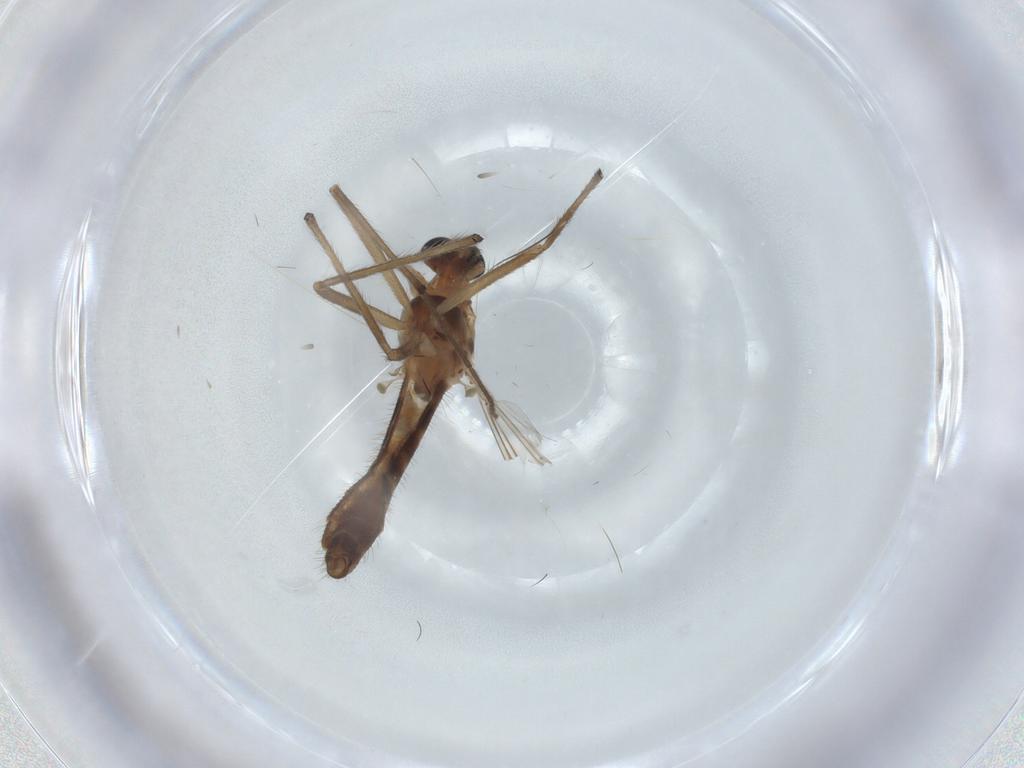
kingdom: Animalia
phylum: Arthropoda
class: Insecta
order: Diptera
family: Chironomidae
